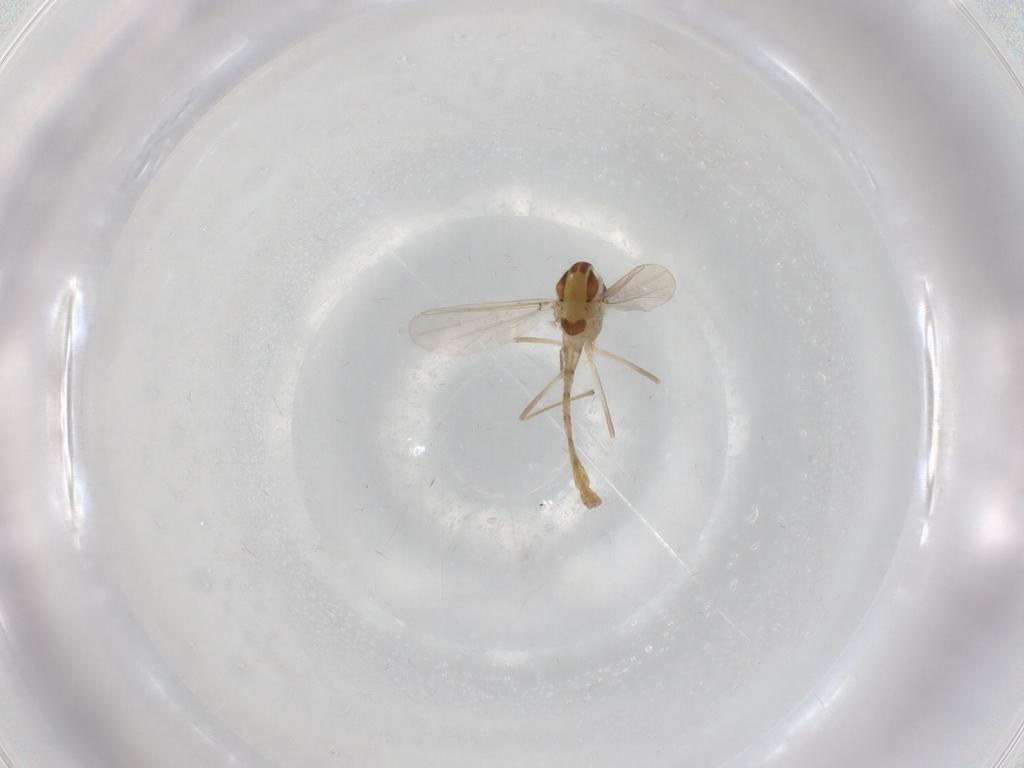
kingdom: Animalia
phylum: Arthropoda
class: Insecta
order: Diptera
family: Chironomidae
